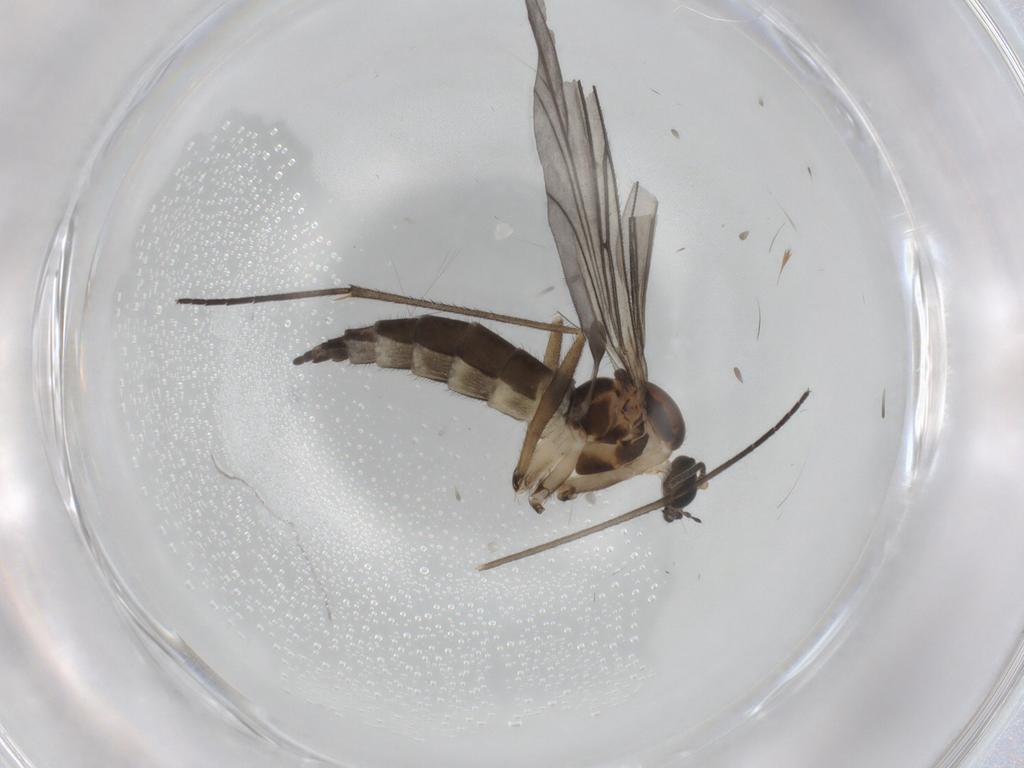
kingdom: Animalia
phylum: Arthropoda
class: Insecta
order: Diptera
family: Sciaridae
